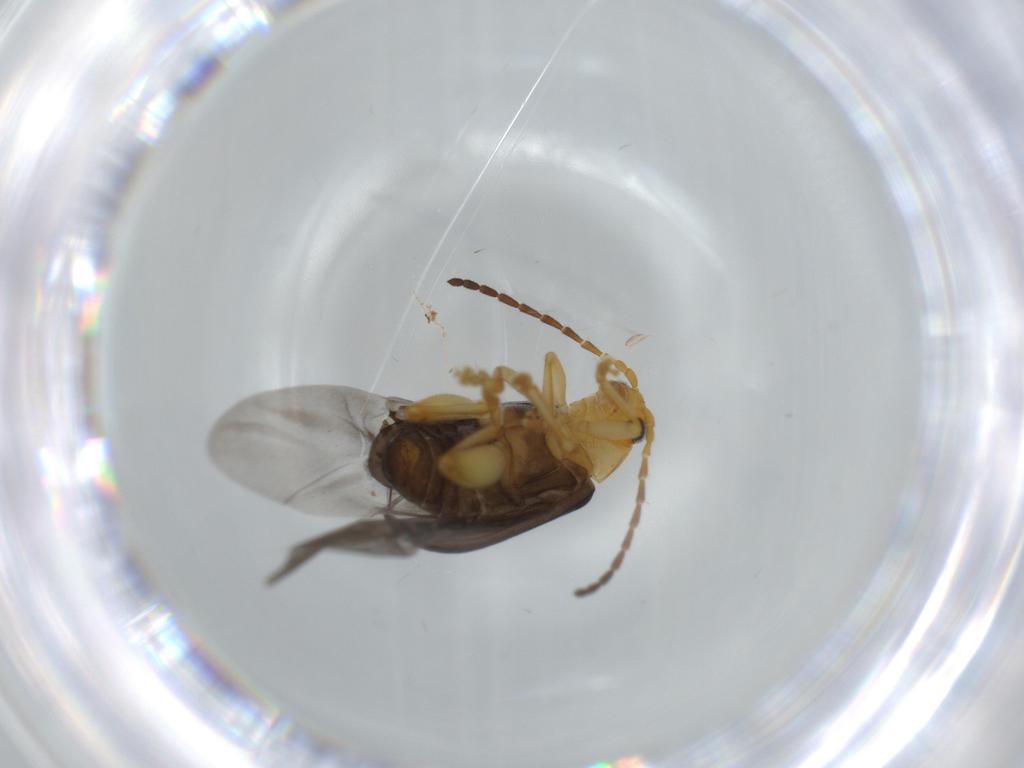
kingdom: Animalia
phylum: Arthropoda
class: Insecta
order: Coleoptera
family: Chrysomelidae
